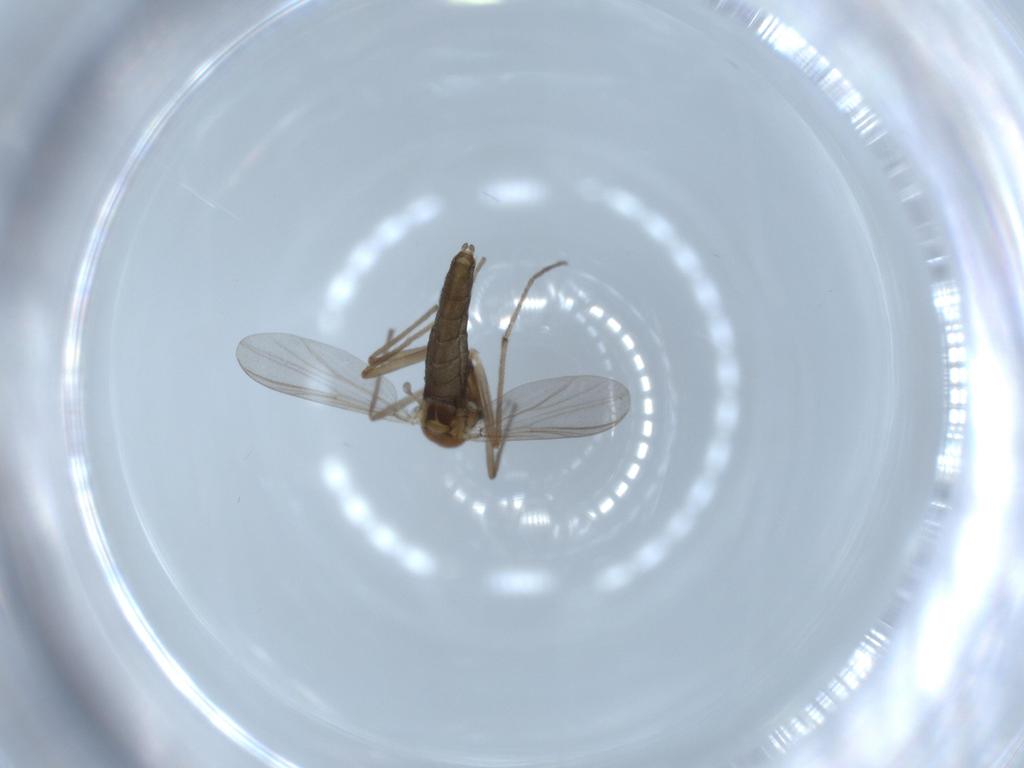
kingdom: Animalia
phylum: Arthropoda
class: Insecta
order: Diptera
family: Chironomidae
